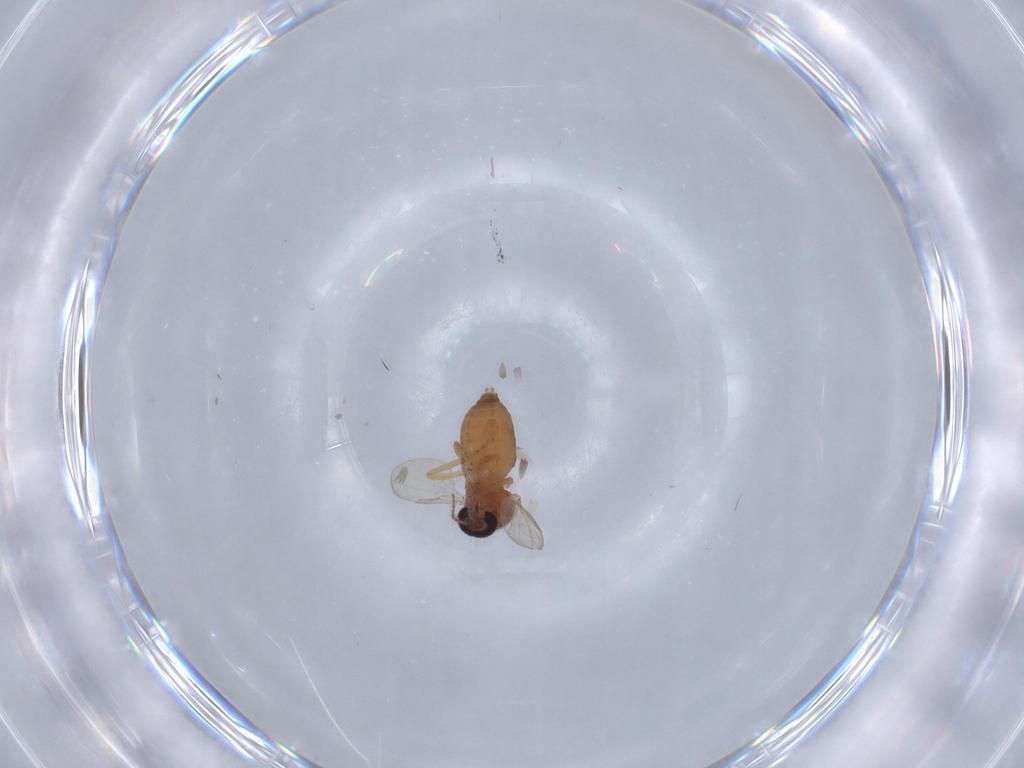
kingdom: Animalia
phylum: Arthropoda
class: Insecta
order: Diptera
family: Ceratopogonidae
